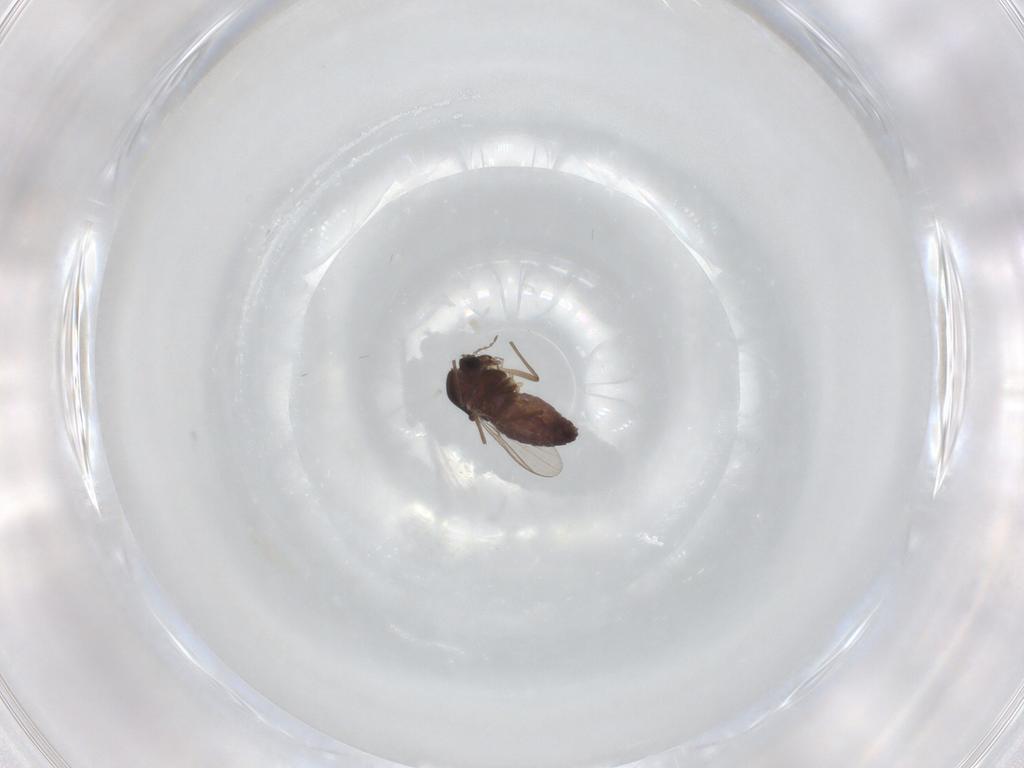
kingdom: Animalia
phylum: Arthropoda
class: Insecta
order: Diptera
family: Chironomidae
